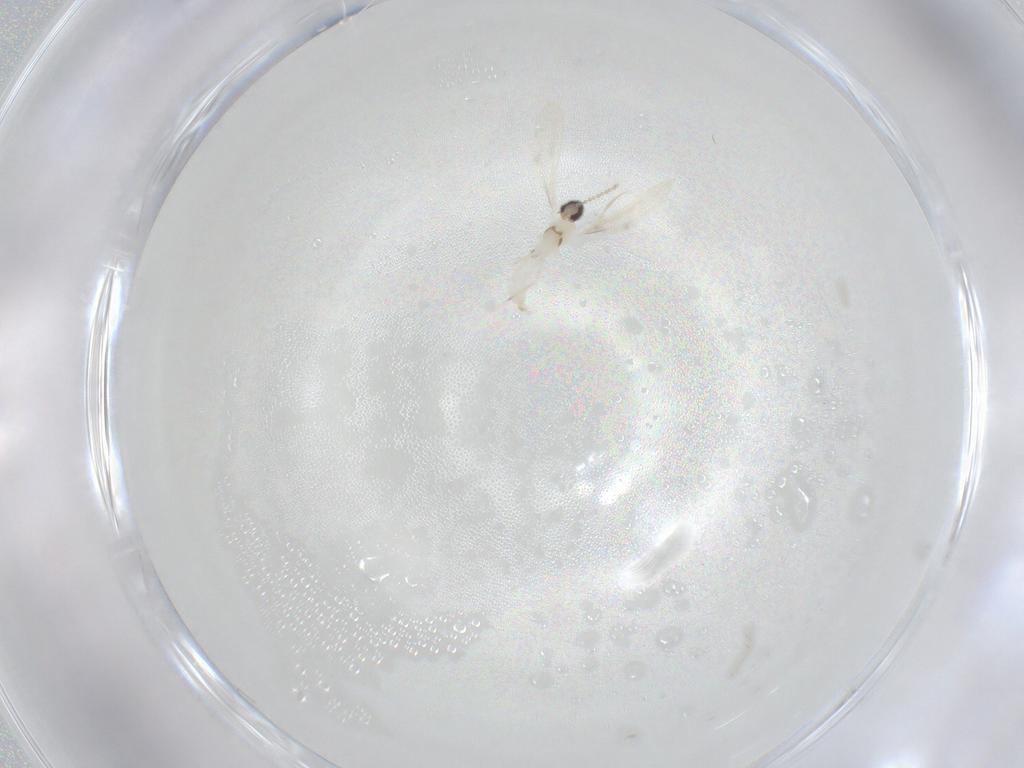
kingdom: Animalia
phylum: Arthropoda
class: Insecta
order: Diptera
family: Cecidomyiidae
